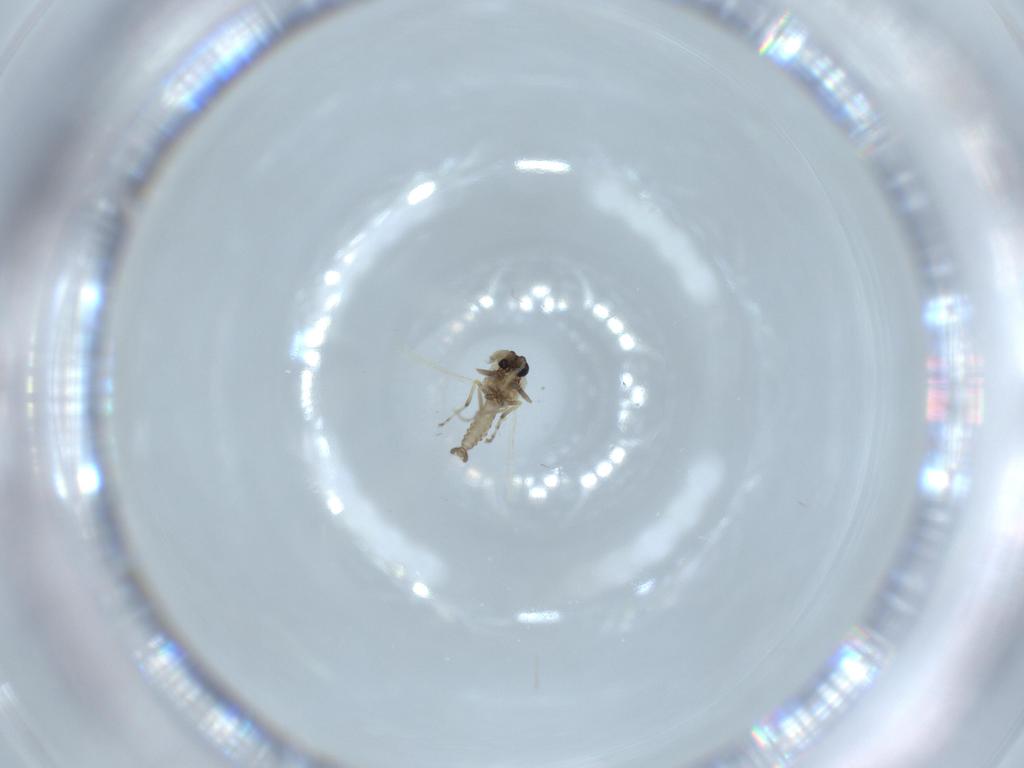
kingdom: Animalia
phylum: Arthropoda
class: Insecta
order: Diptera
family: Ceratopogonidae
